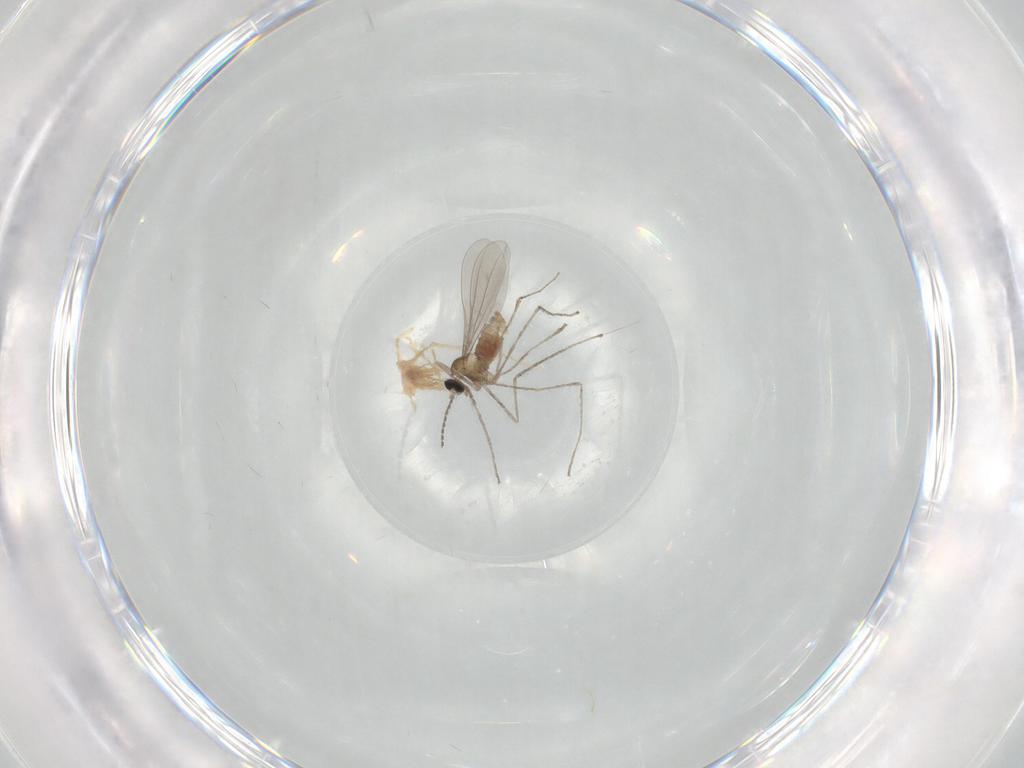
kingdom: Animalia
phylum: Arthropoda
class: Insecta
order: Diptera
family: Cecidomyiidae
